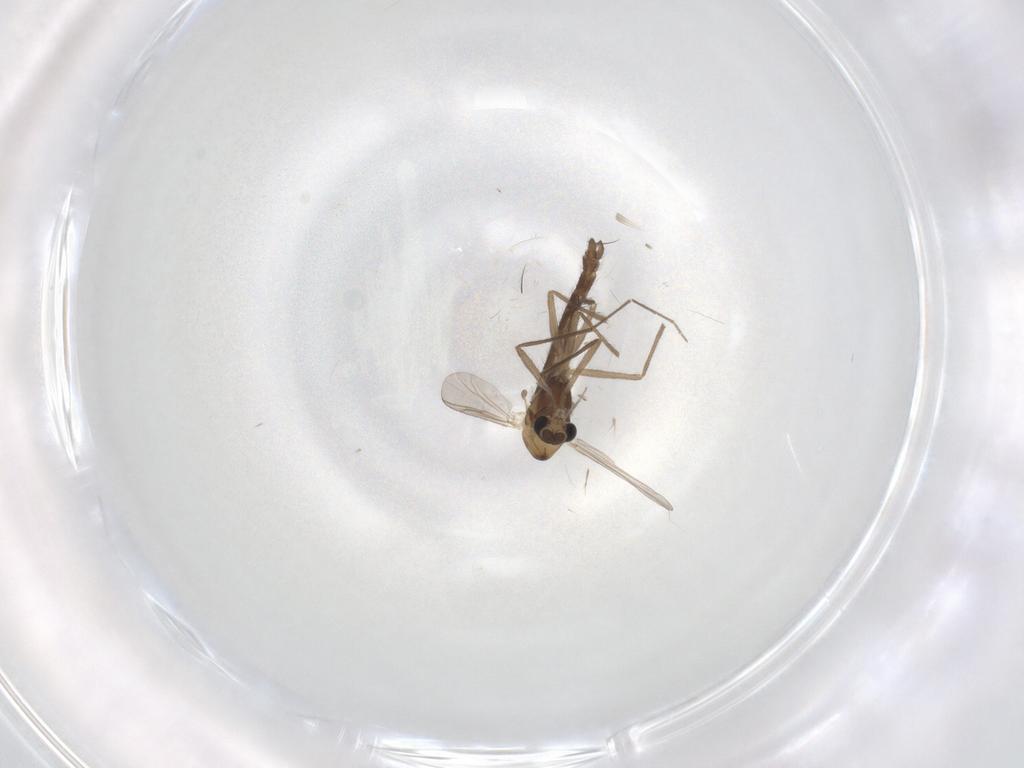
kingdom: Animalia
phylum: Arthropoda
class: Insecta
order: Diptera
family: Chironomidae
